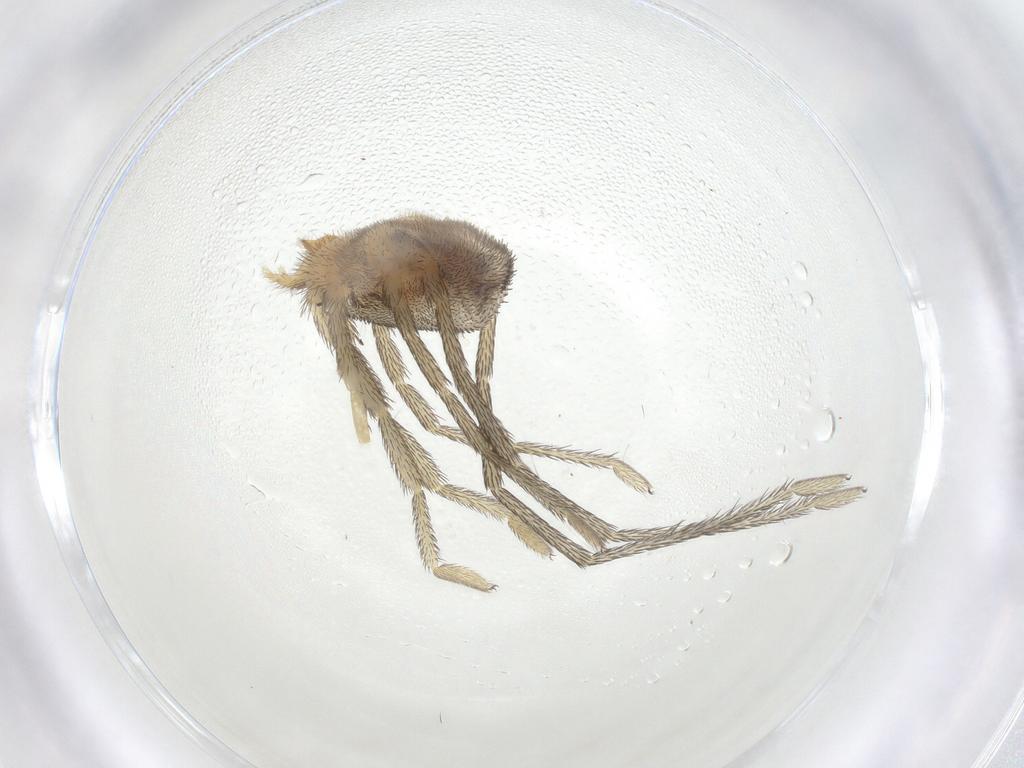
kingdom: Animalia
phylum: Arthropoda
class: Arachnida
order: Trombidiformes
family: Erythraeidae
